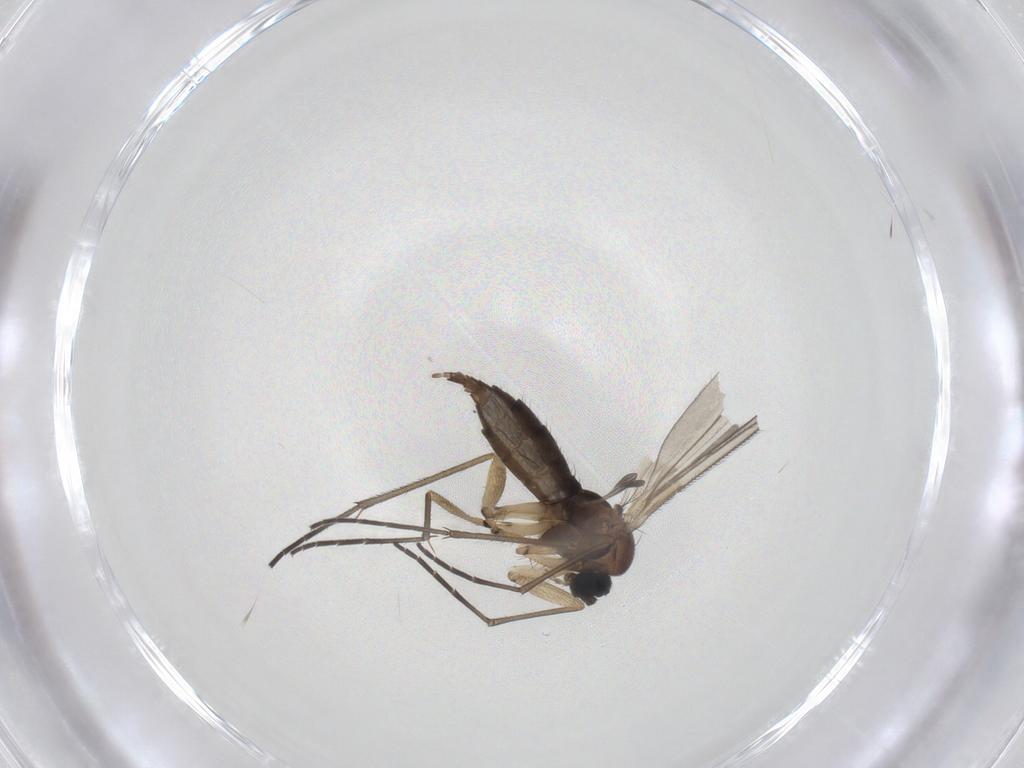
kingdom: Animalia
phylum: Arthropoda
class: Insecta
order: Diptera
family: Sciaridae
